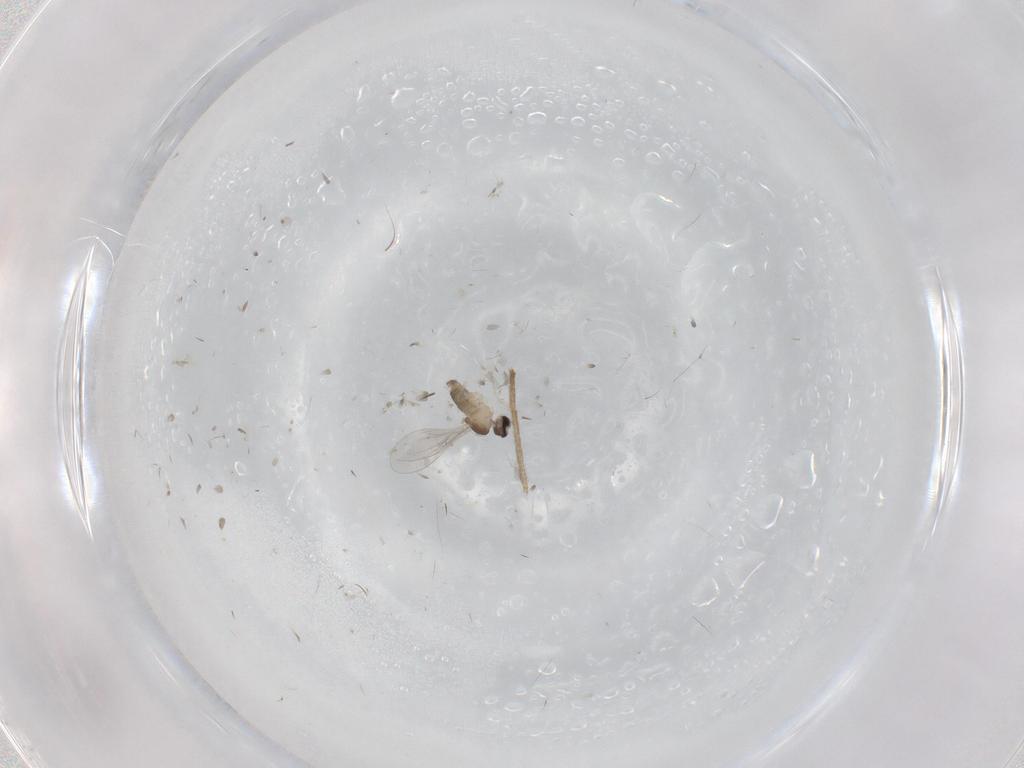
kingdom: Animalia
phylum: Arthropoda
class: Insecta
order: Diptera
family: Cecidomyiidae
